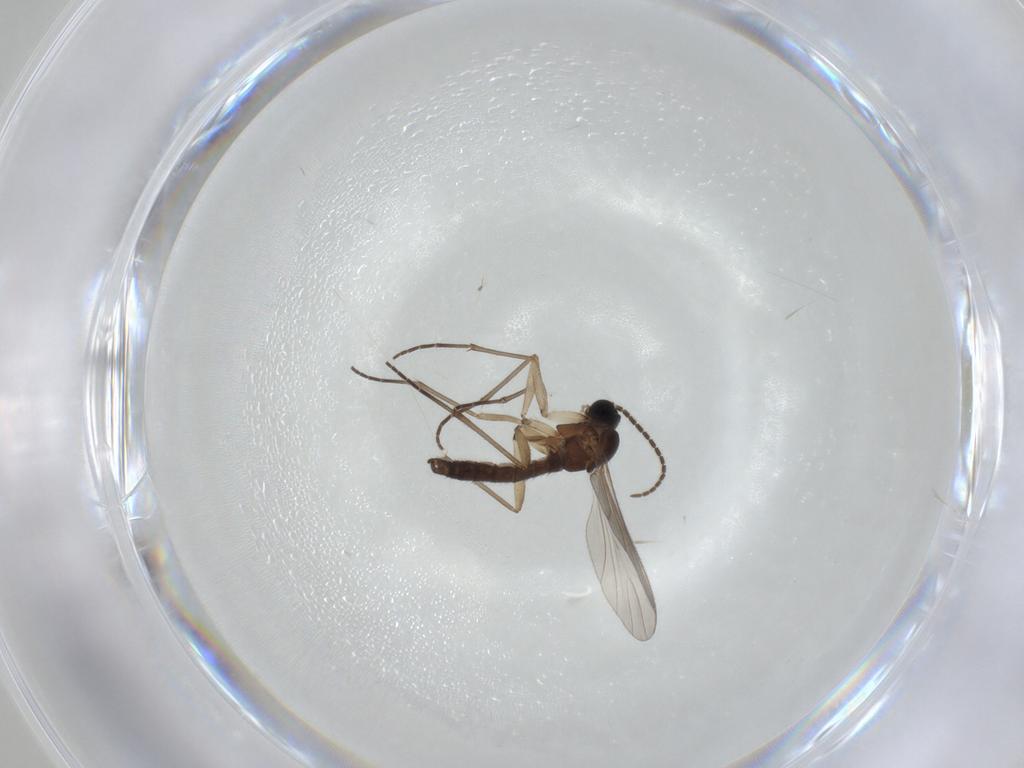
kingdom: Animalia
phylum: Arthropoda
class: Insecta
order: Diptera
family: Sciaridae
